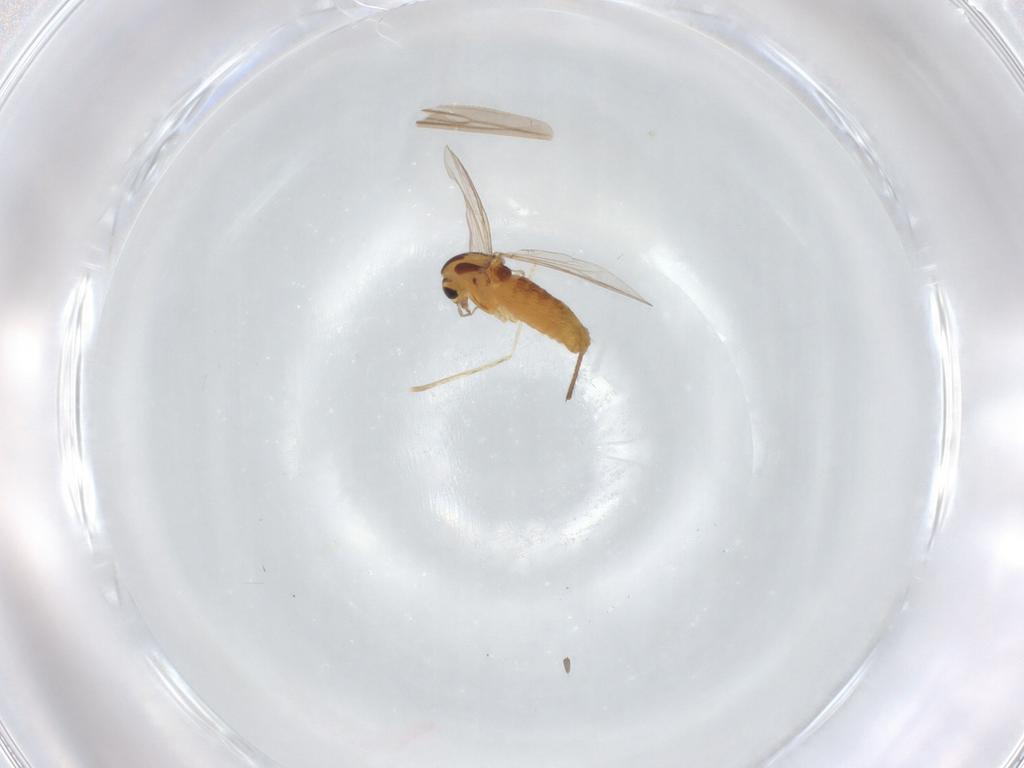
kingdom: Animalia
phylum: Arthropoda
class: Insecta
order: Diptera
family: Chironomidae
